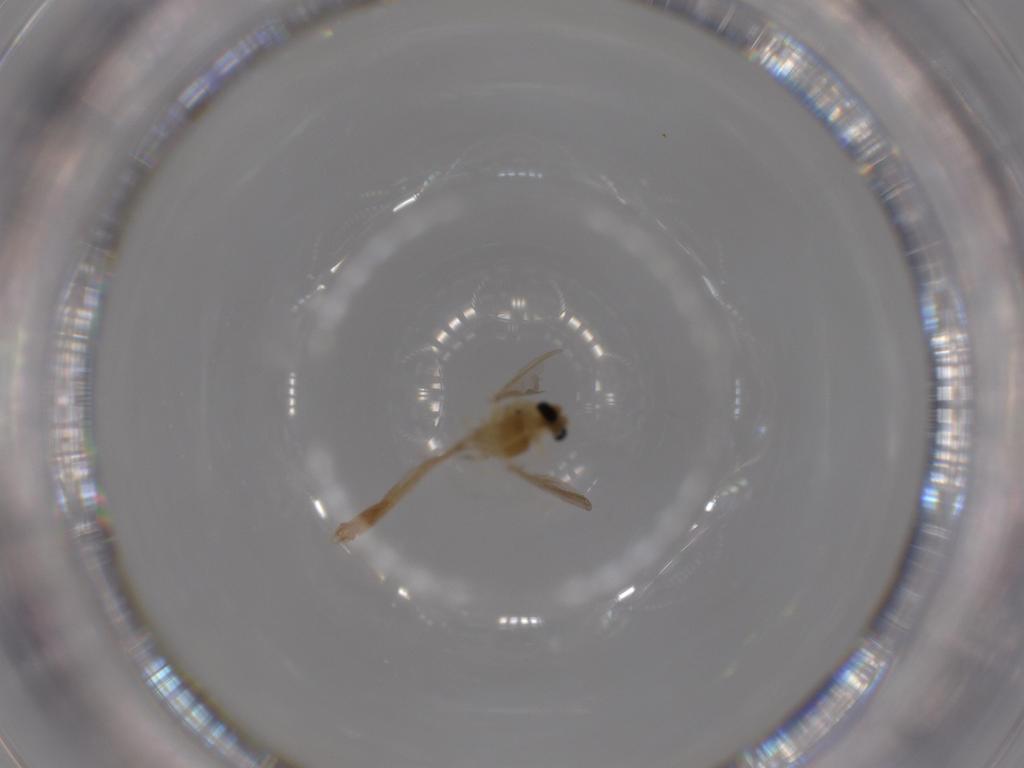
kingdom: Animalia
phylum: Arthropoda
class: Insecta
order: Diptera
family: Chironomidae
